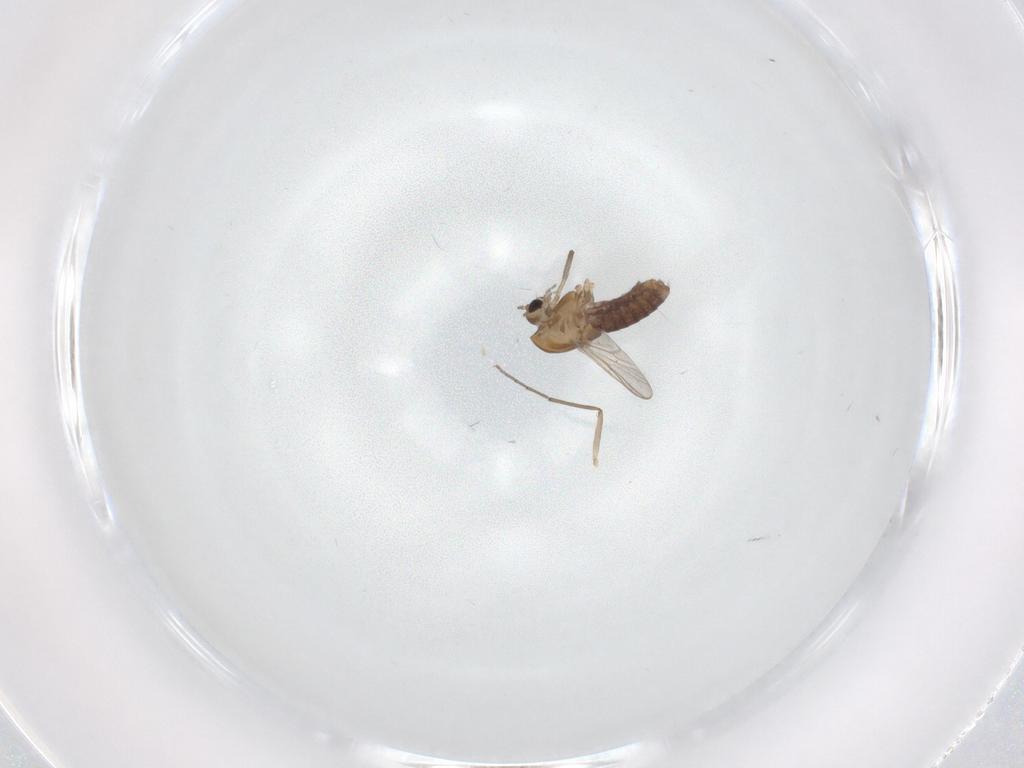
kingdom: Animalia
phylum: Arthropoda
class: Insecta
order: Diptera
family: Chironomidae
